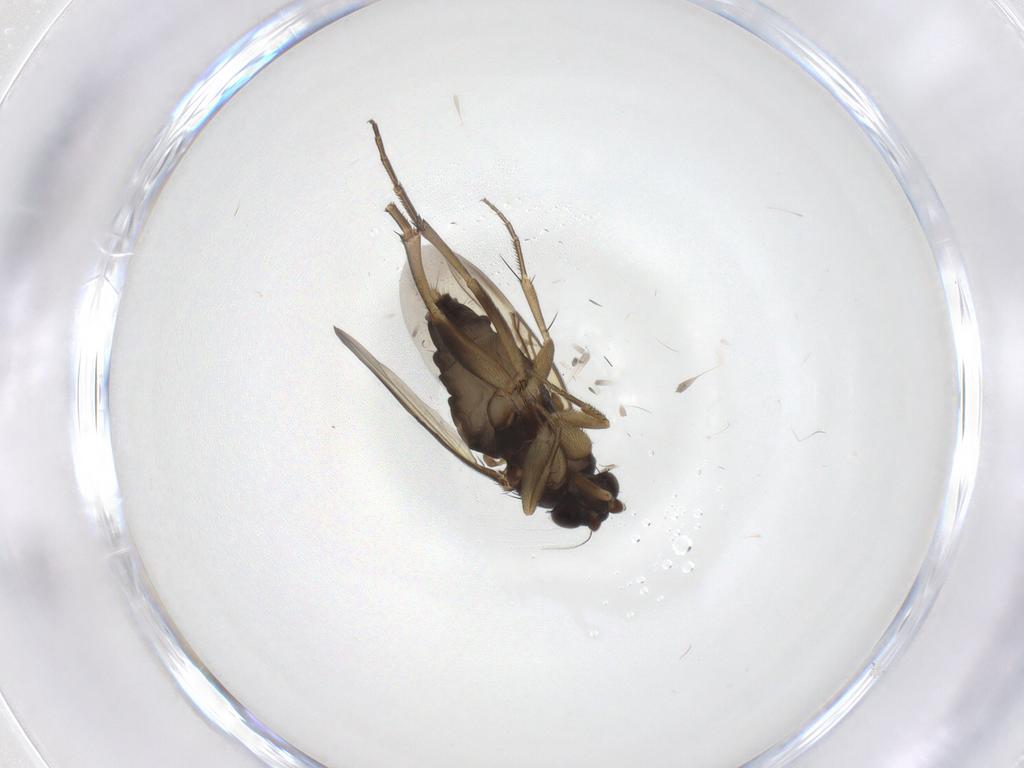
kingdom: Animalia
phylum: Arthropoda
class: Insecta
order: Diptera
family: Phoridae
